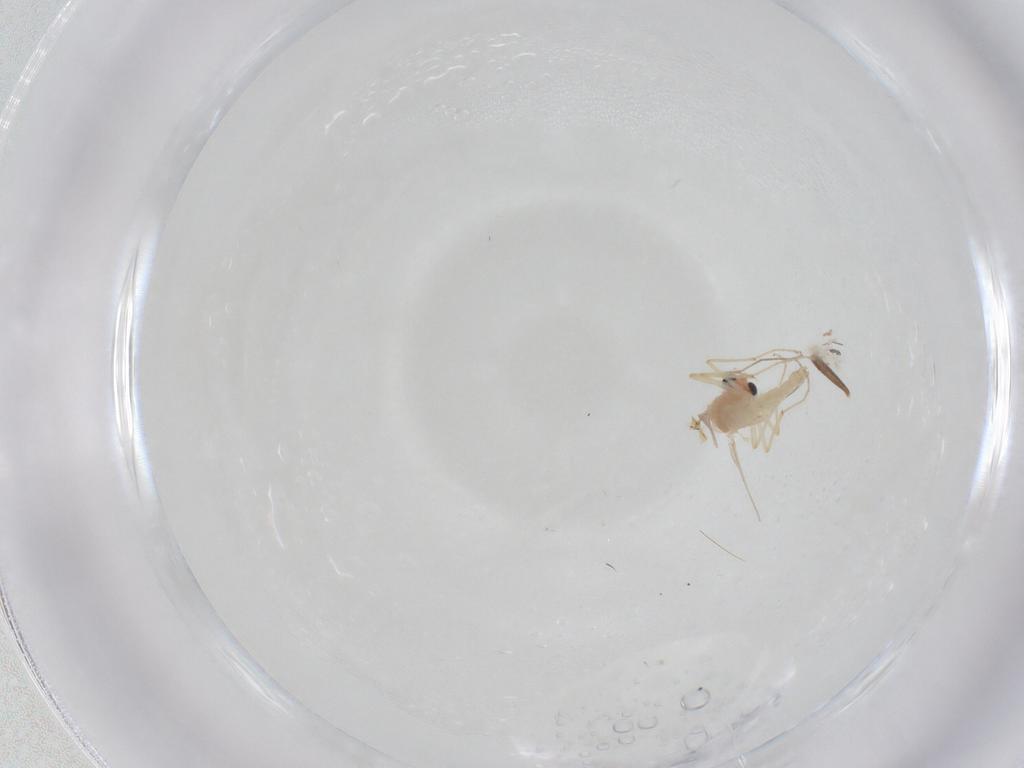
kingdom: Animalia
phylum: Arthropoda
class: Insecta
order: Diptera
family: Chironomidae
